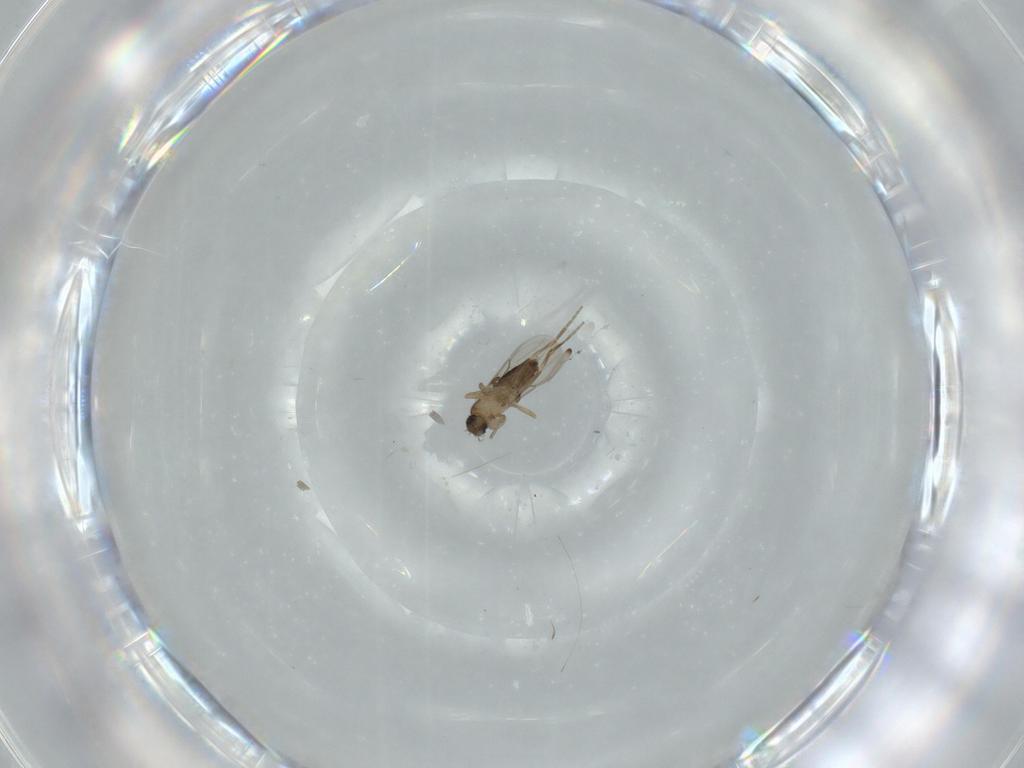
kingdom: Animalia
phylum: Arthropoda
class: Insecta
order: Diptera
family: Phoridae
